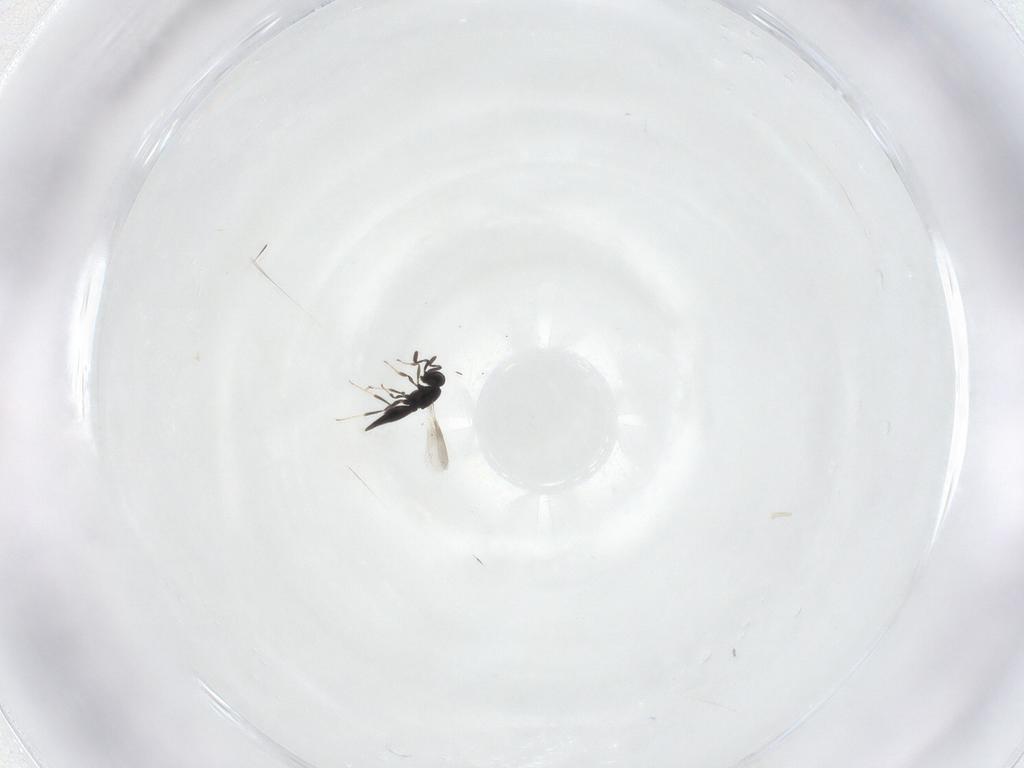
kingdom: Animalia
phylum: Arthropoda
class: Insecta
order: Hymenoptera
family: Scelionidae
